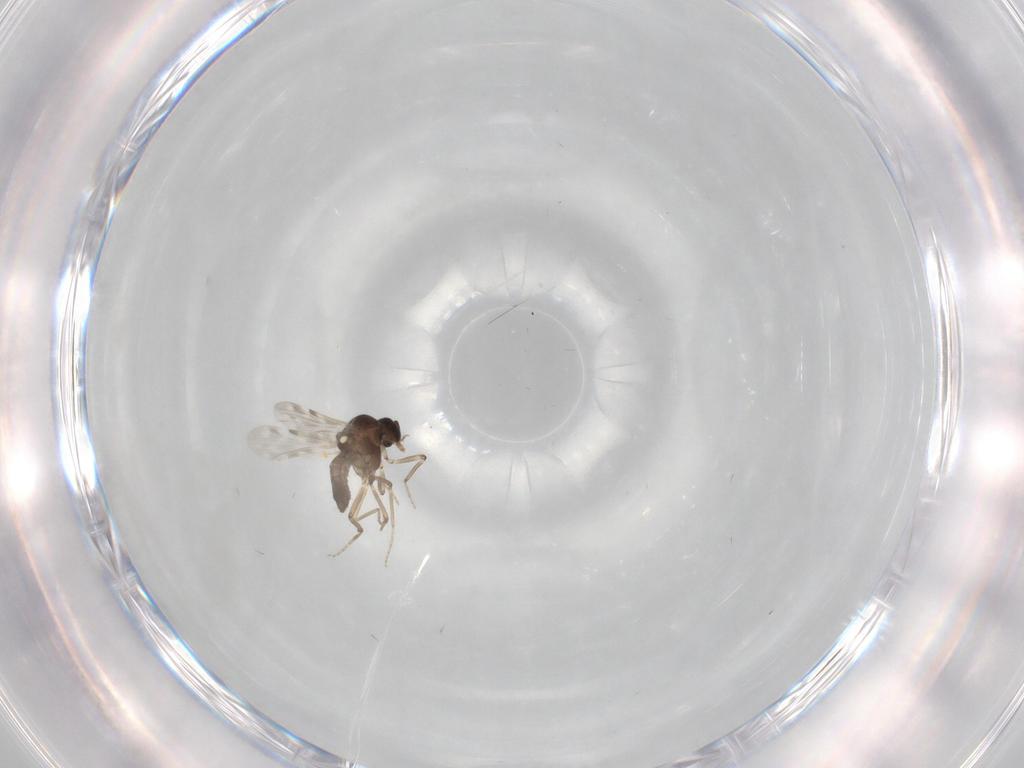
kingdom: Animalia
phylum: Arthropoda
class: Insecta
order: Diptera
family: Ceratopogonidae
